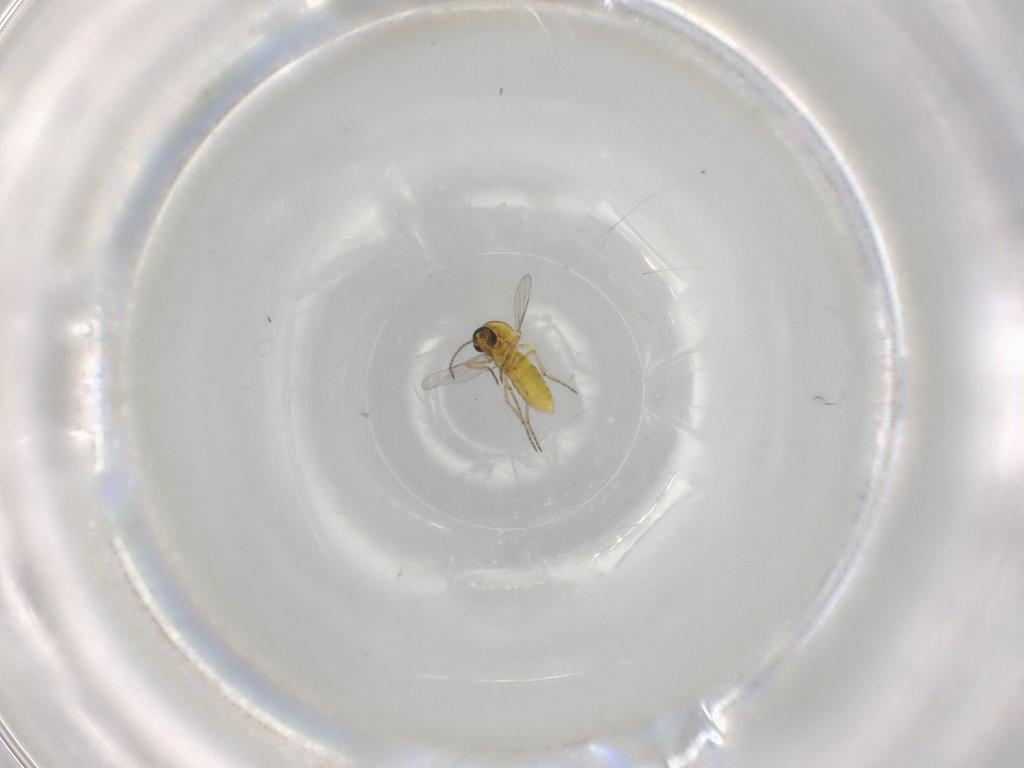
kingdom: Animalia
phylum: Arthropoda
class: Insecta
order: Diptera
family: Ceratopogonidae
